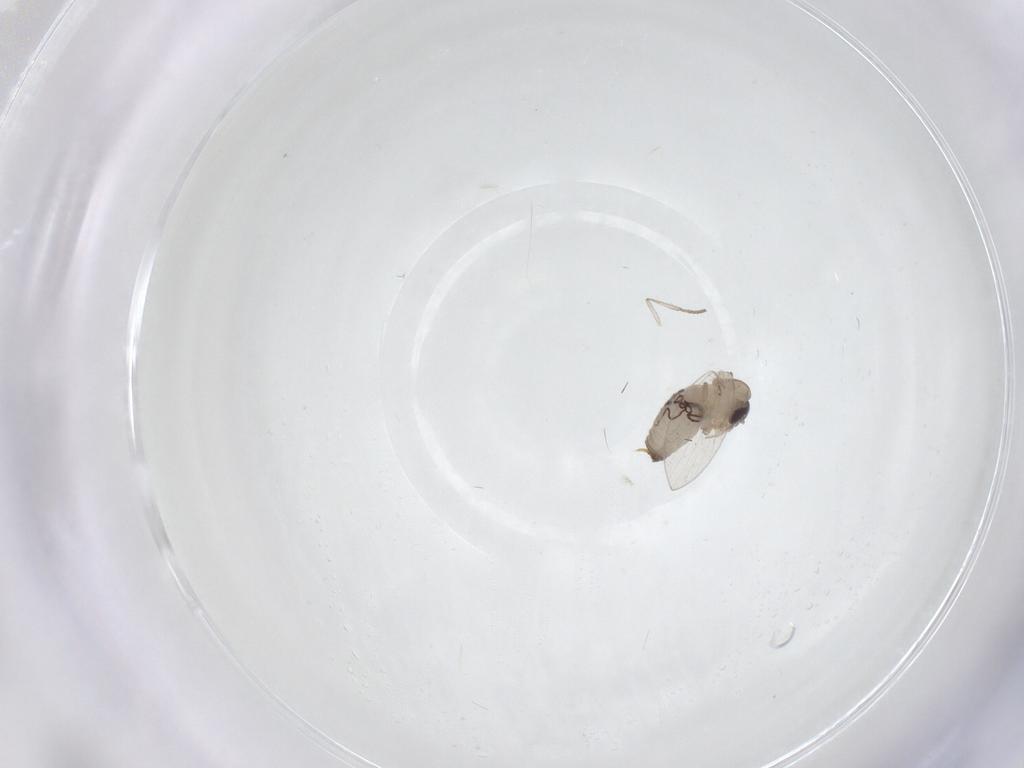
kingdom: Animalia
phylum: Arthropoda
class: Insecta
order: Diptera
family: Psychodidae
